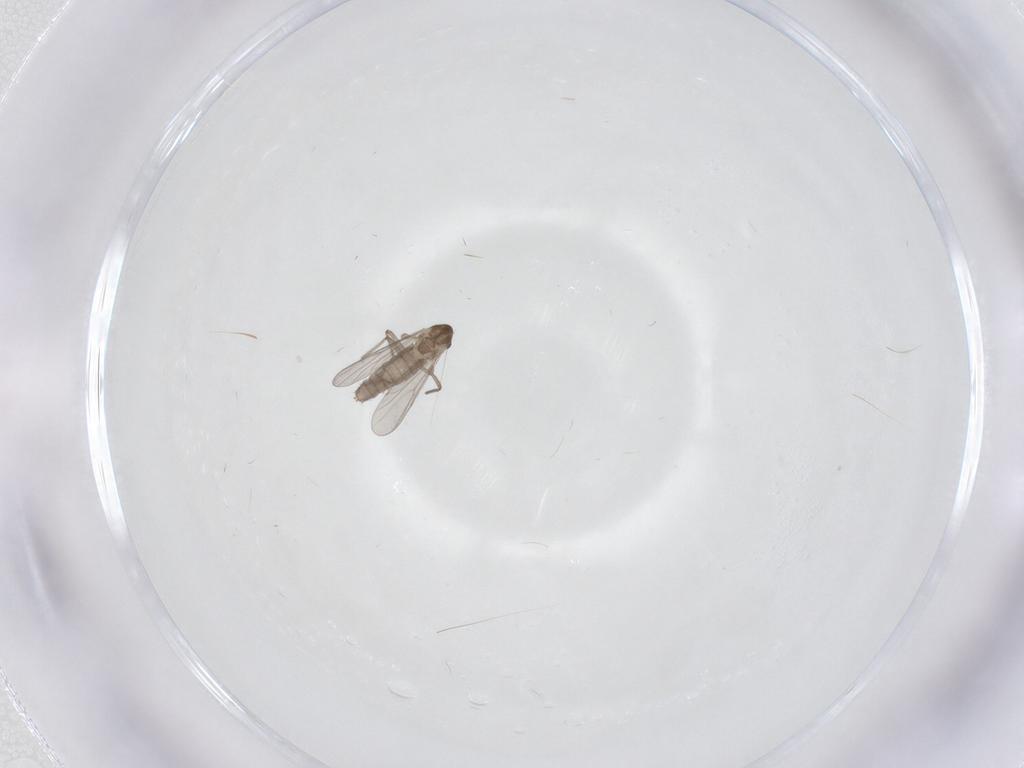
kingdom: Animalia
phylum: Arthropoda
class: Insecta
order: Diptera
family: Chironomidae
